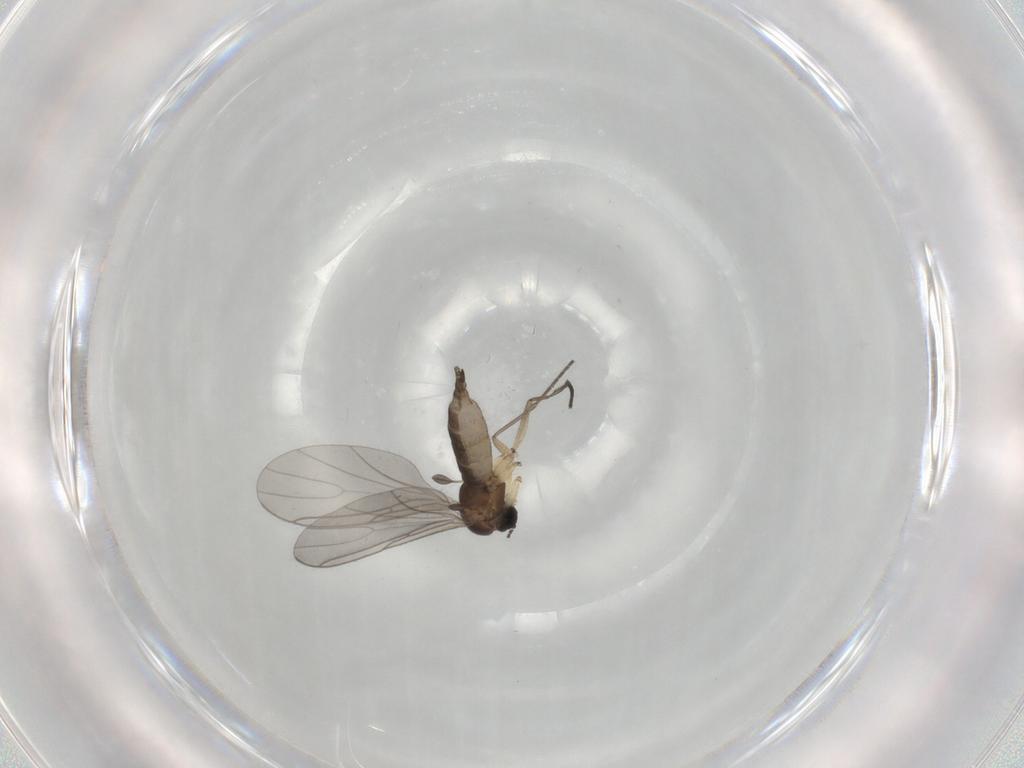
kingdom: Animalia
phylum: Arthropoda
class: Insecta
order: Diptera
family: Sciaridae
